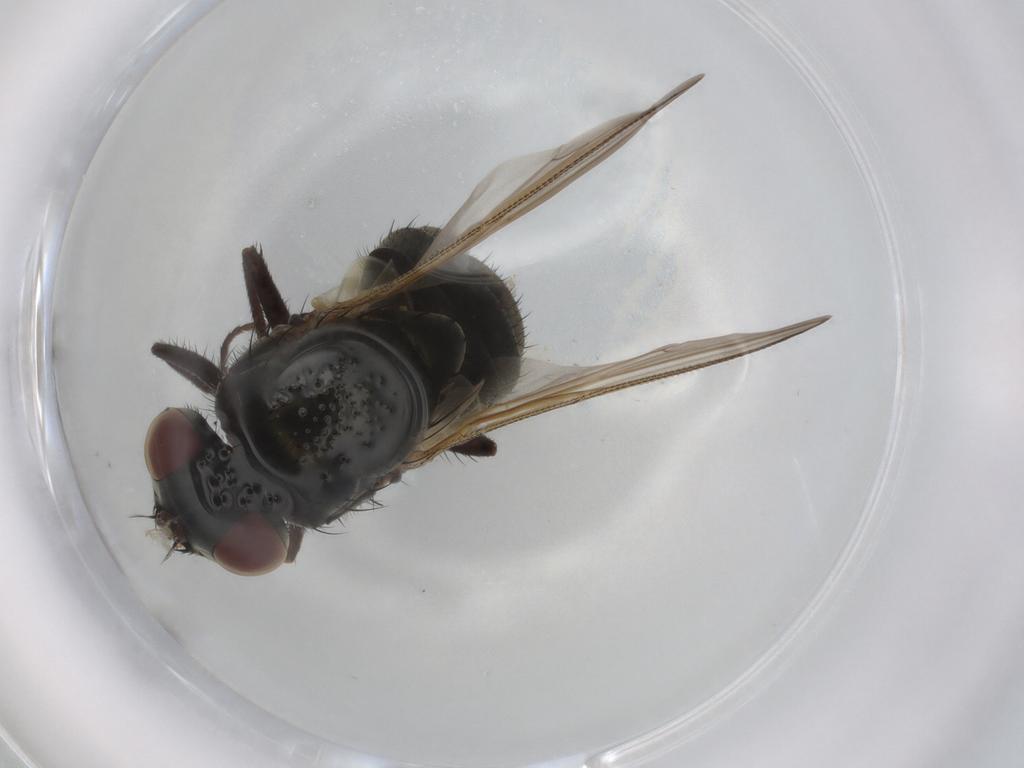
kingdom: Animalia
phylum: Arthropoda
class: Insecta
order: Diptera
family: Muscidae
